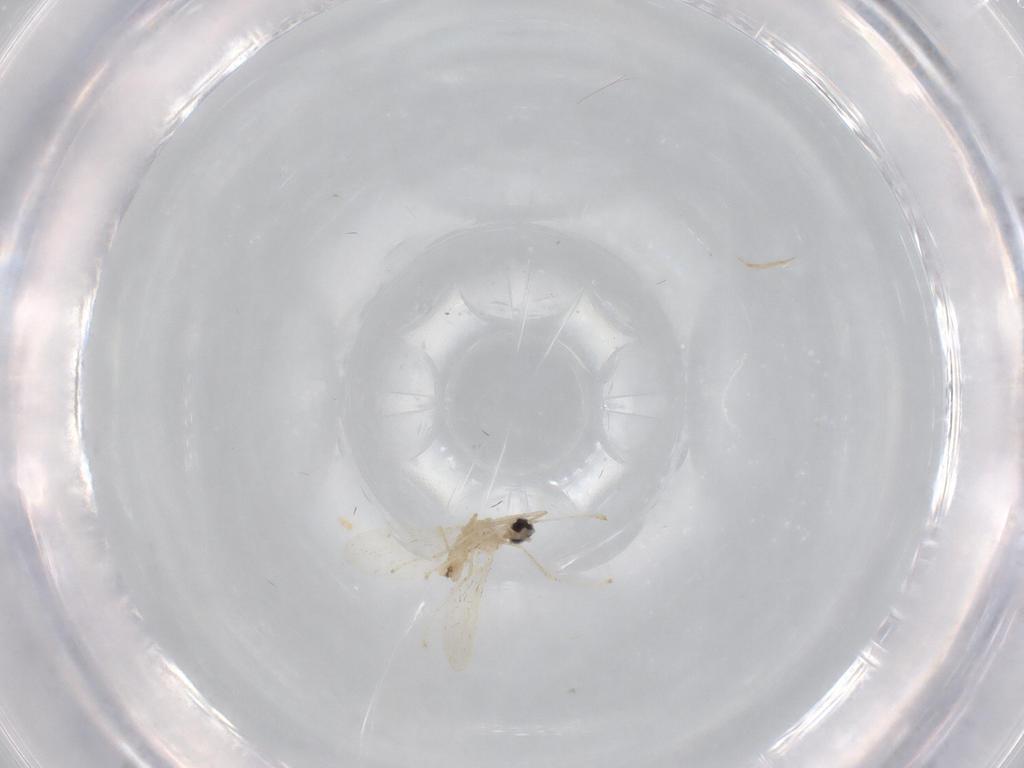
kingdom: Animalia
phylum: Arthropoda
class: Insecta
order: Diptera
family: Cecidomyiidae
